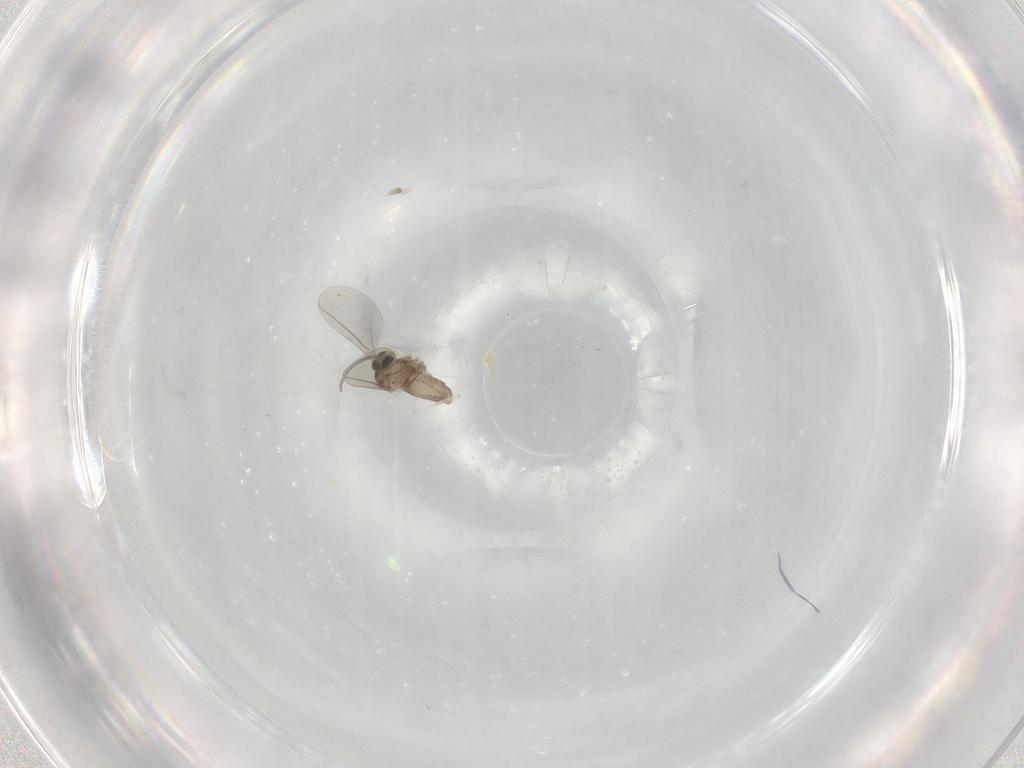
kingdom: Animalia
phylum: Arthropoda
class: Insecta
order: Diptera
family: Cecidomyiidae
